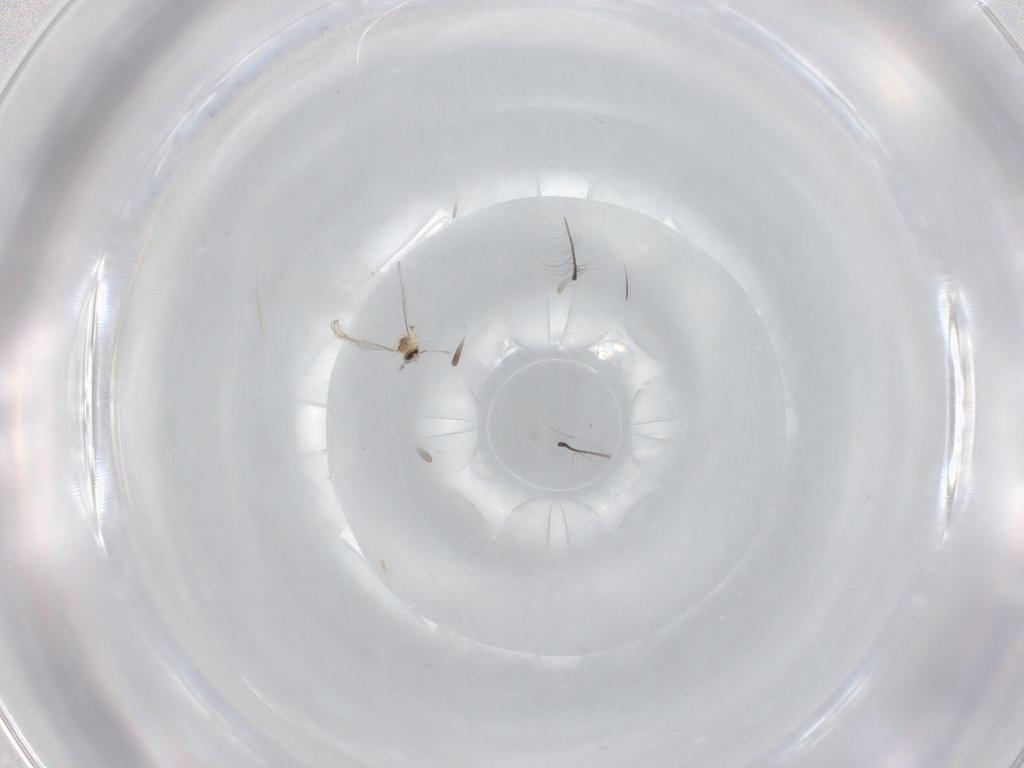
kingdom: Animalia
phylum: Arthropoda
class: Insecta
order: Diptera
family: Cecidomyiidae
